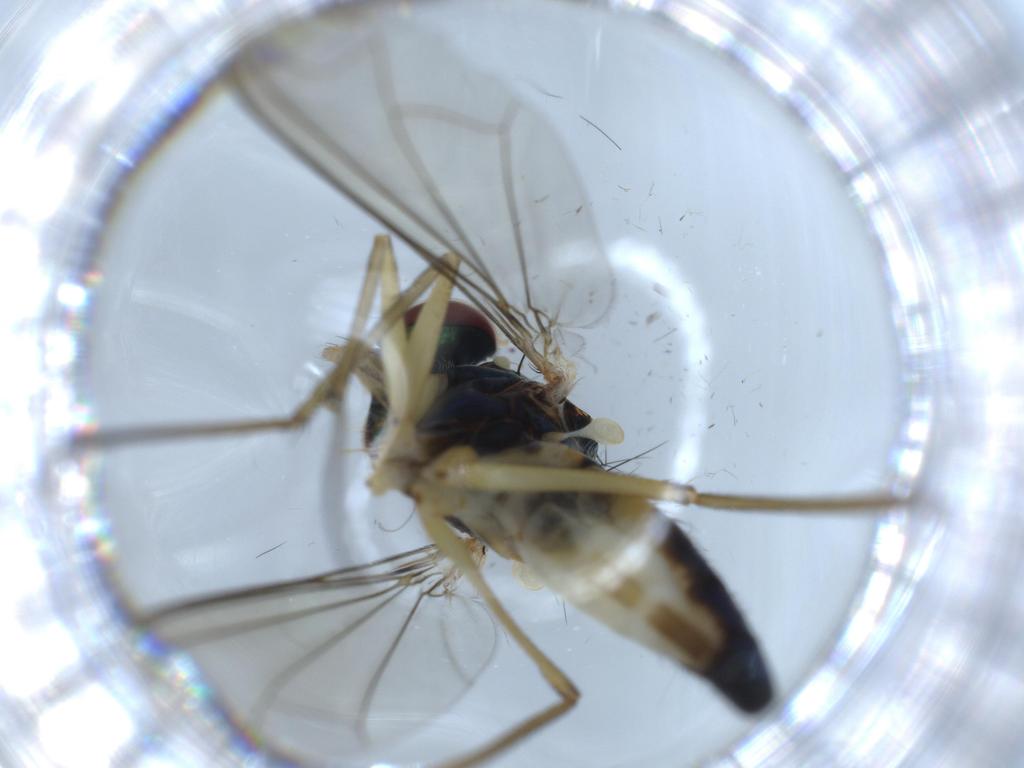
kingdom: Animalia
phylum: Arthropoda
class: Insecta
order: Diptera
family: Dolichopodidae
